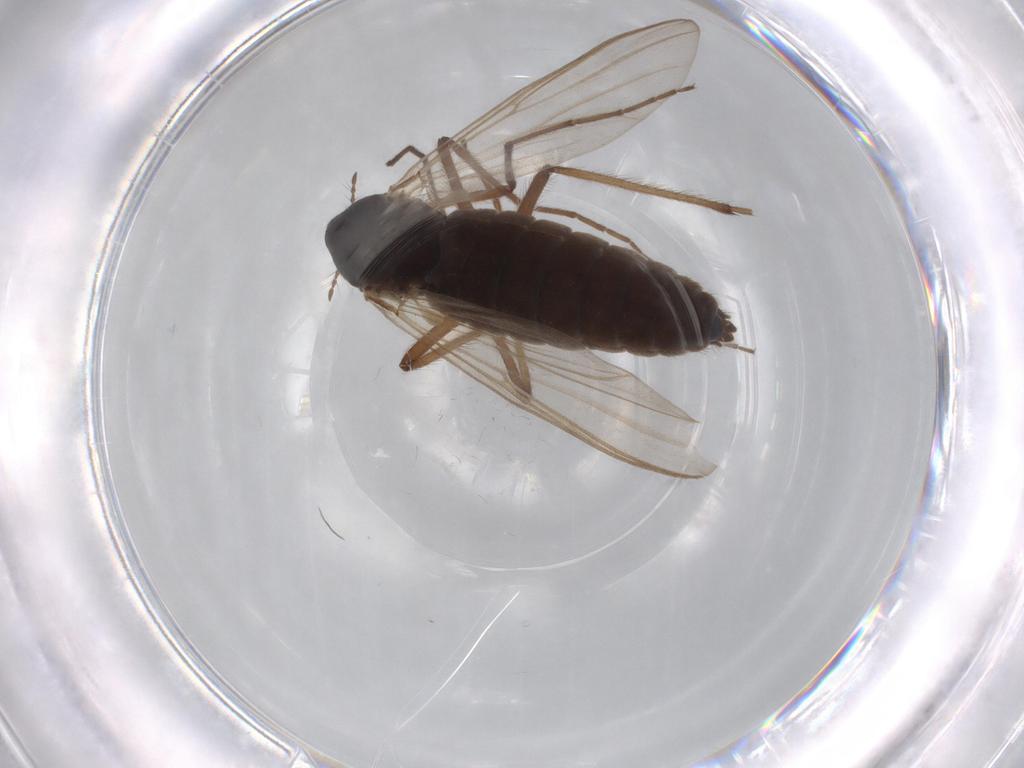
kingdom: Animalia
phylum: Arthropoda
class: Insecta
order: Diptera
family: Sphaeroceridae
